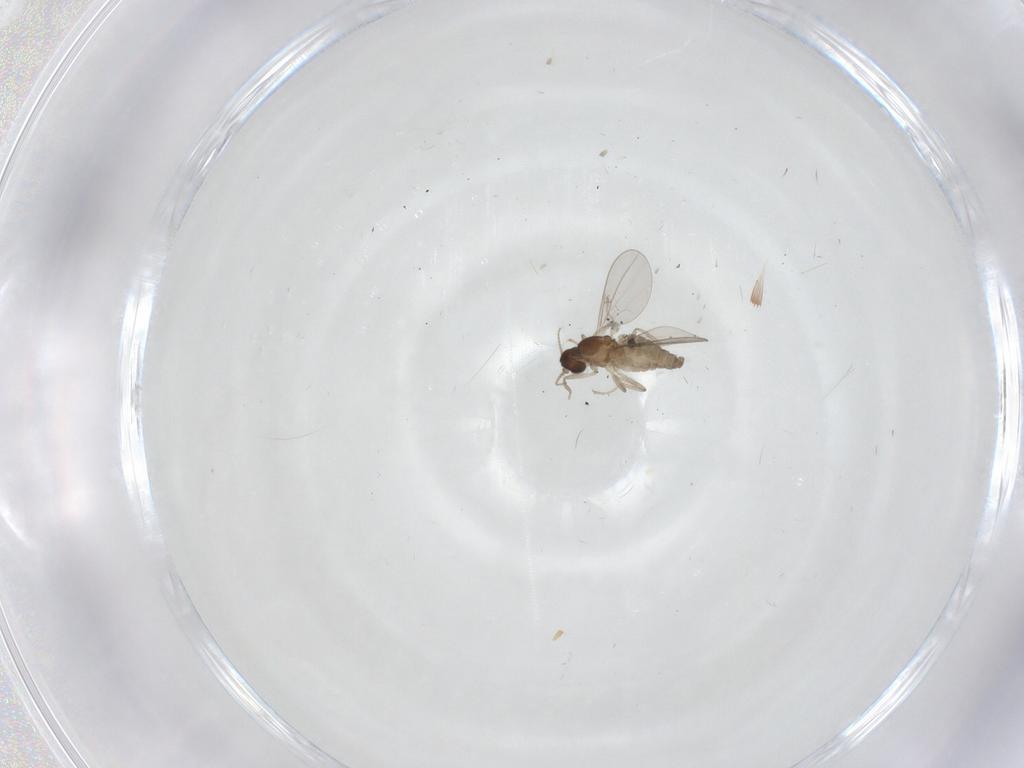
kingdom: Animalia
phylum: Arthropoda
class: Insecta
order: Diptera
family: Cecidomyiidae
